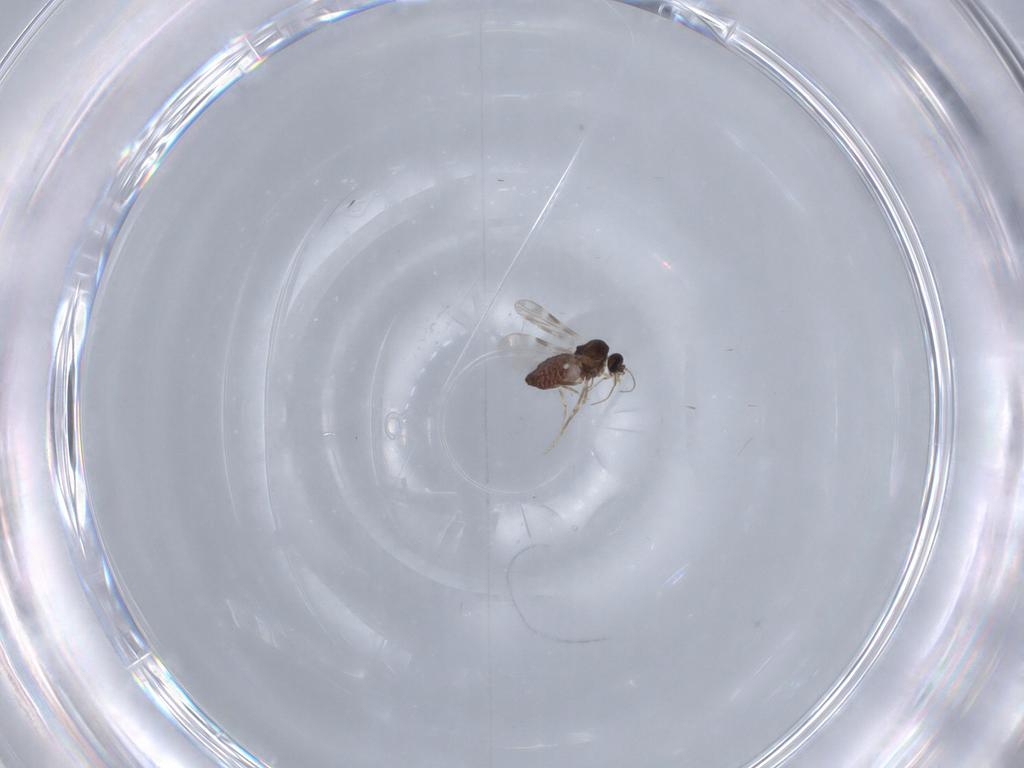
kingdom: Animalia
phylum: Arthropoda
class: Insecta
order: Diptera
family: Ceratopogonidae
